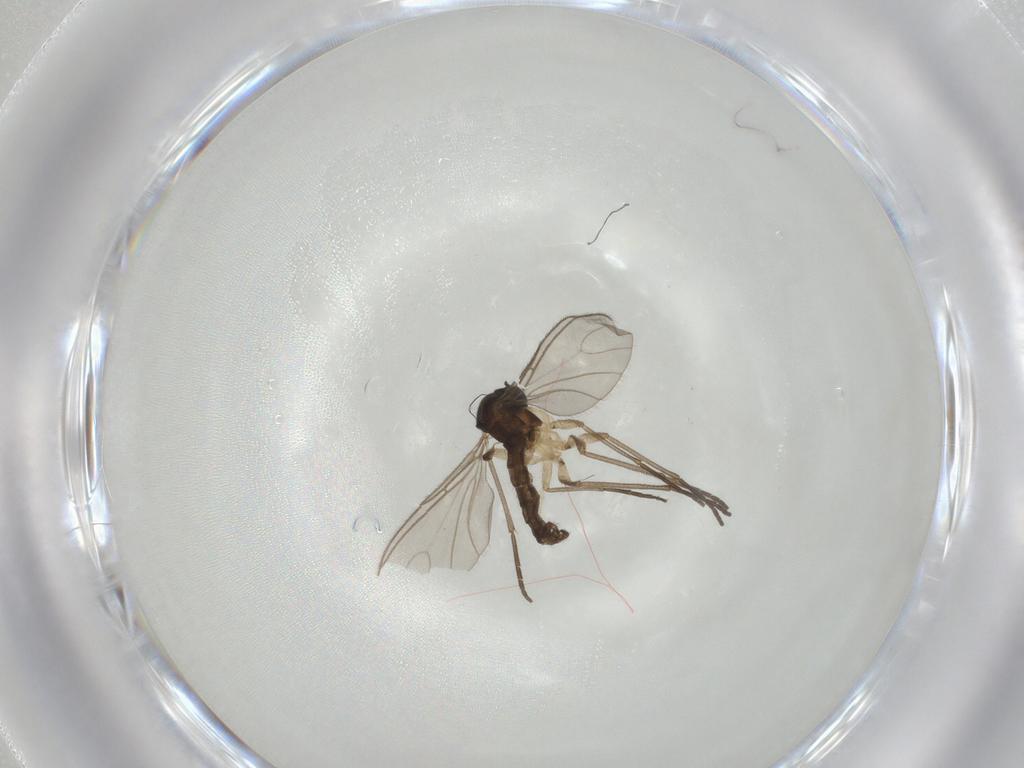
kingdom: Animalia
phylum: Arthropoda
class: Insecta
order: Diptera
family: Sciaridae
